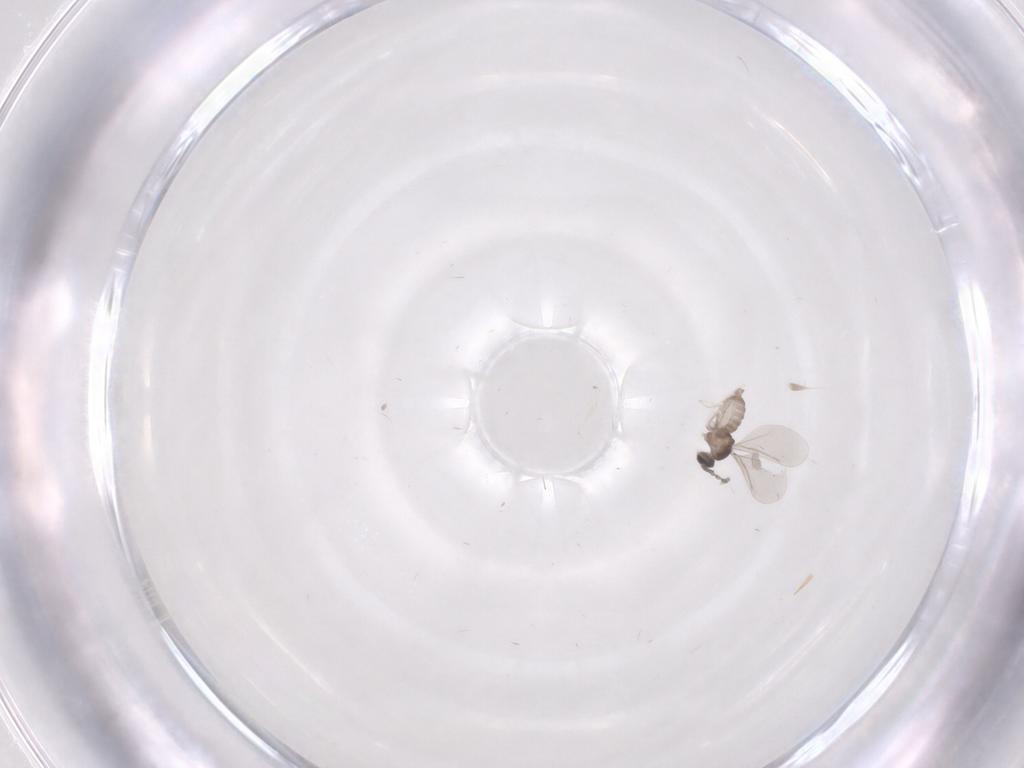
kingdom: Animalia
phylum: Arthropoda
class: Insecta
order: Diptera
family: Cecidomyiidae
